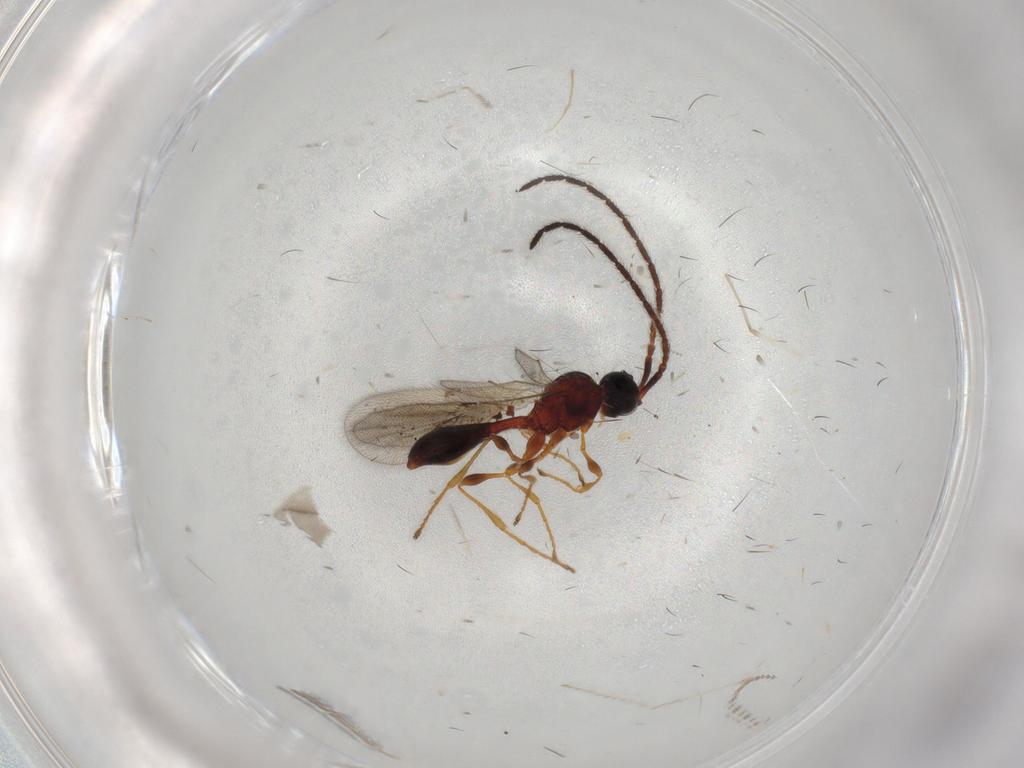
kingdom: Animalia
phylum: Arthropoda
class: Insecta
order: Hymenoptera
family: Diapriidae
